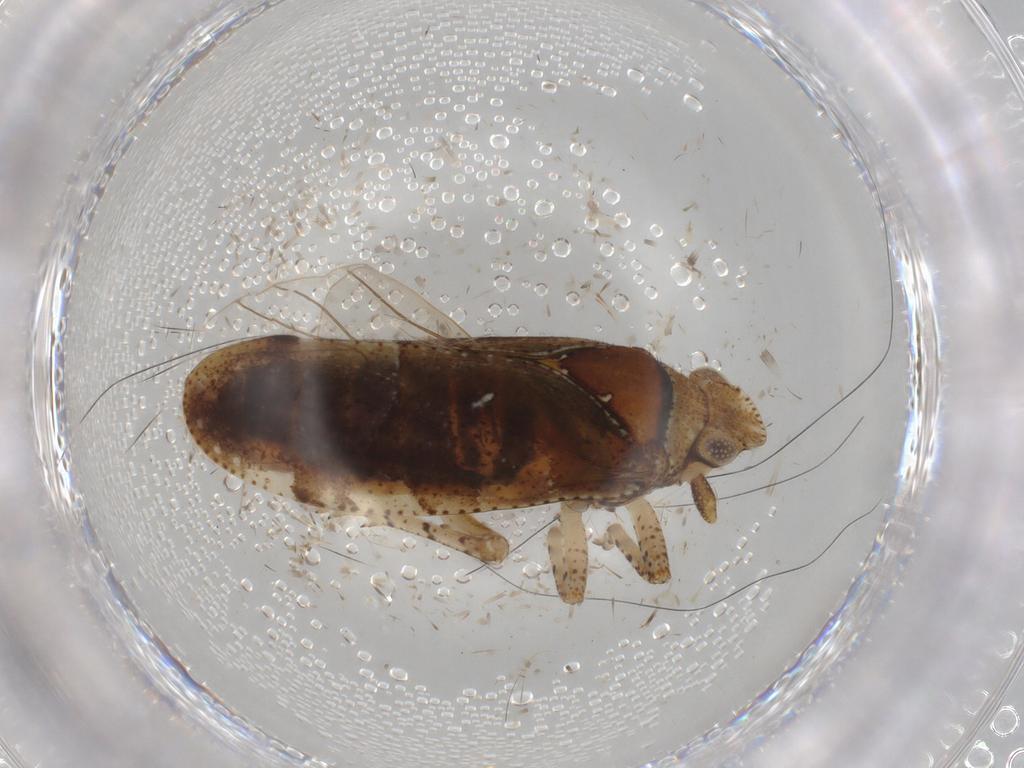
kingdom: Animalia
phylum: Arthropoda
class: Insecta
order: Hemiptera
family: Tettigometridae
